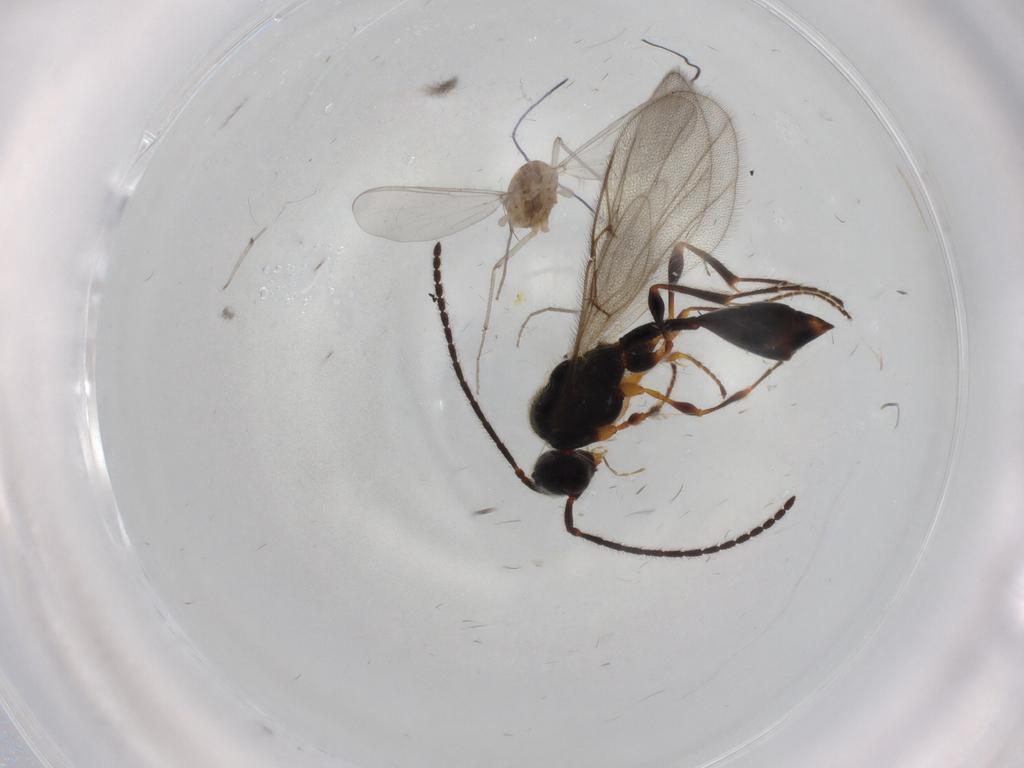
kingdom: Animalia
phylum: Arthropoda
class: Insecta
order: Diptera
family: Chironomidae
